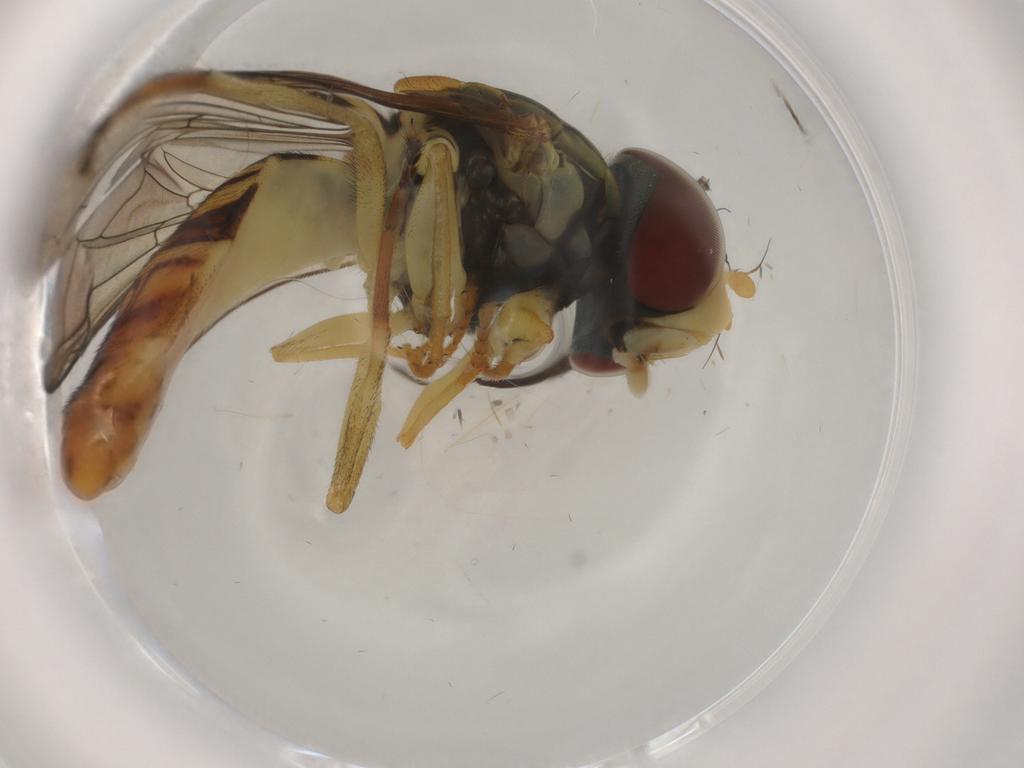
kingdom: Animalia
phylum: Arthropoda
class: Insecta
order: Diptera
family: Syrphidae
